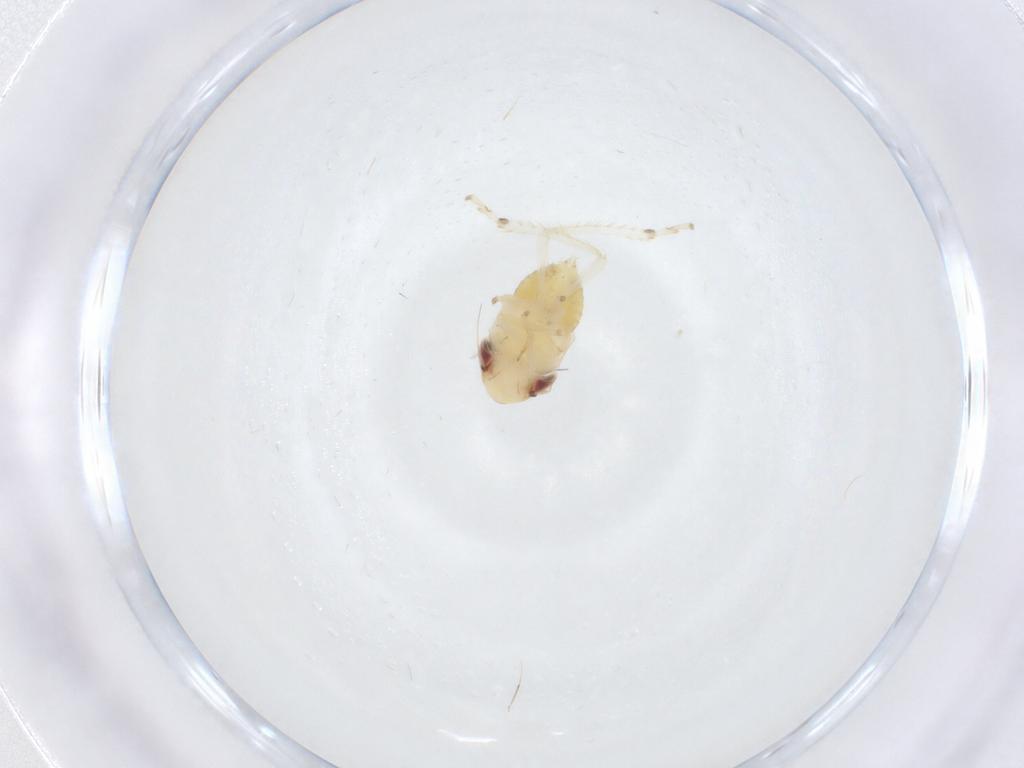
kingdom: Animalia
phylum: Arthropoda
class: Insecta
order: Hemiptera
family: Cicadellidae
